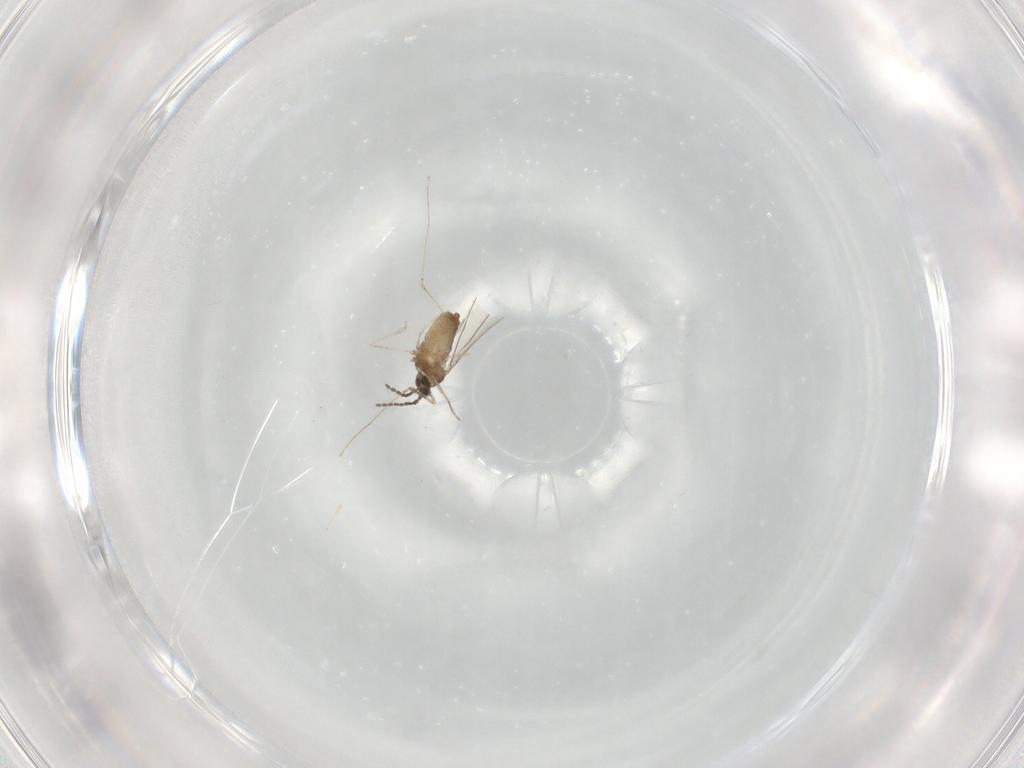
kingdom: Animalia
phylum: Arthropoda
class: Insecta
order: Diptera
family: Cecidomyiidae
